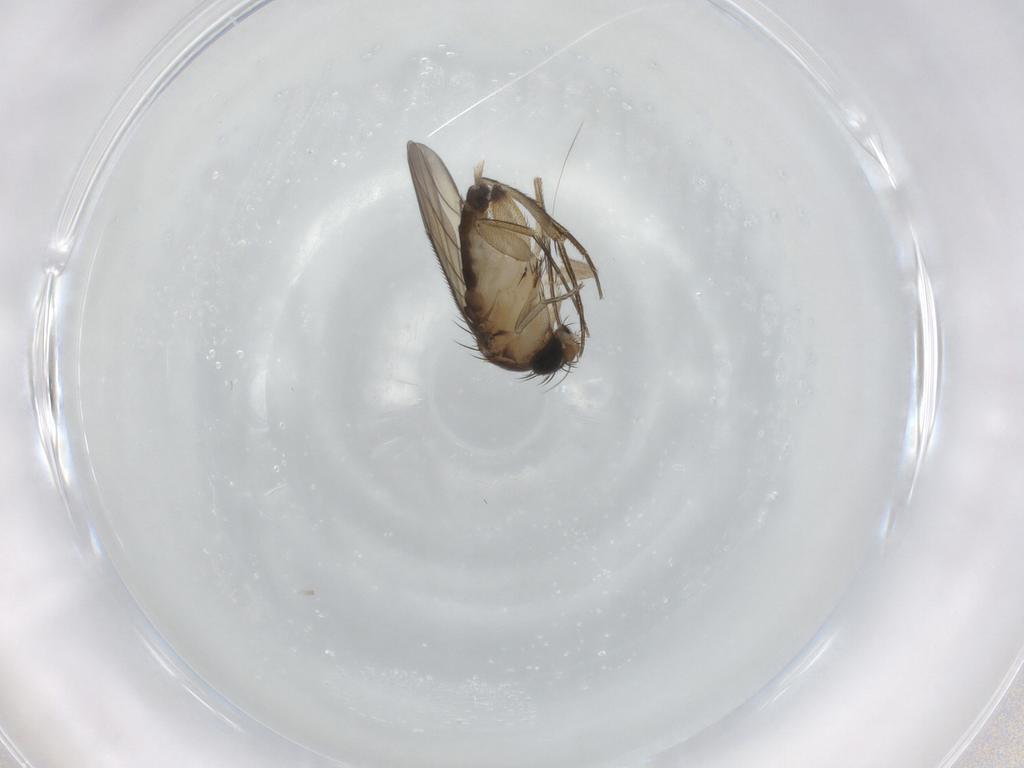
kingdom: Animalia
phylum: Arthropoda
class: Insecta
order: Diptera
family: Phoridae
